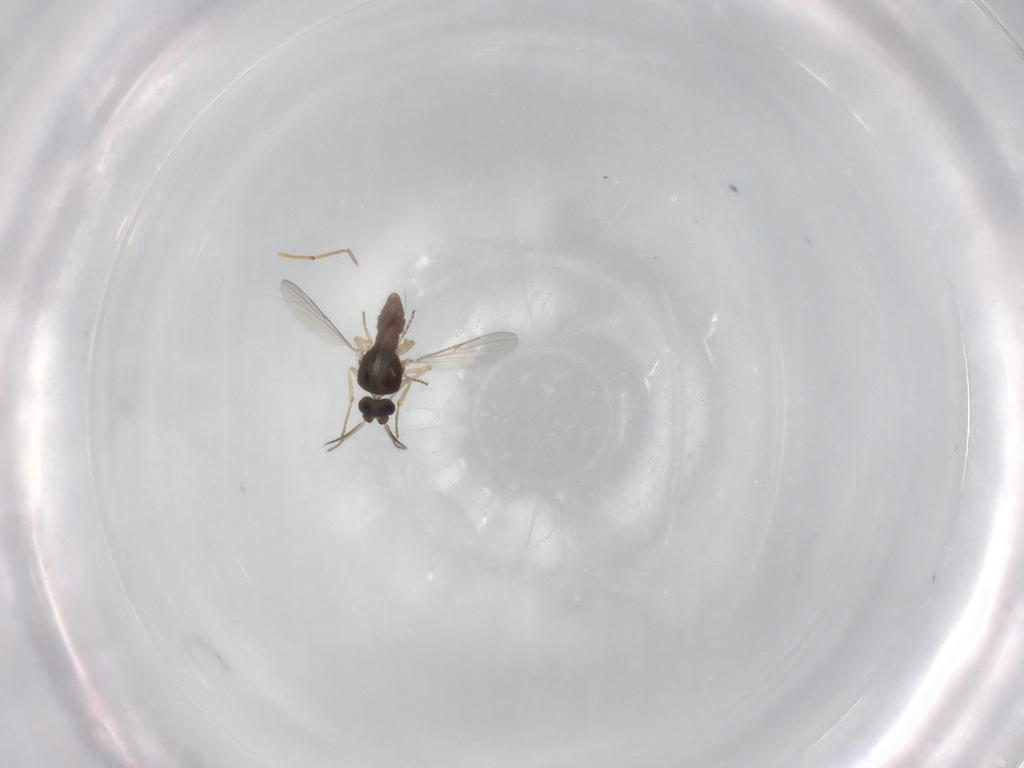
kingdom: Animalia
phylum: Arthropoda
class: Insecta
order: Diptera
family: Ceratopogonidae
